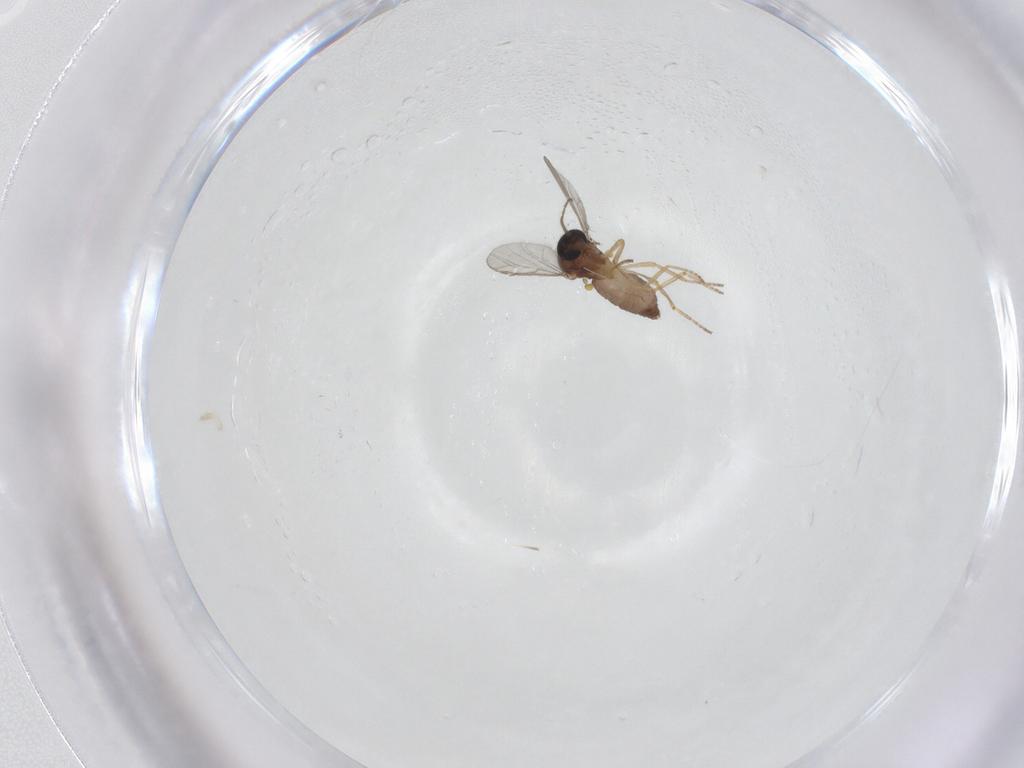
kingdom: Animalia
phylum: Arthropoda
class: Insecta
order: Diptera
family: Ceratopogonidae
